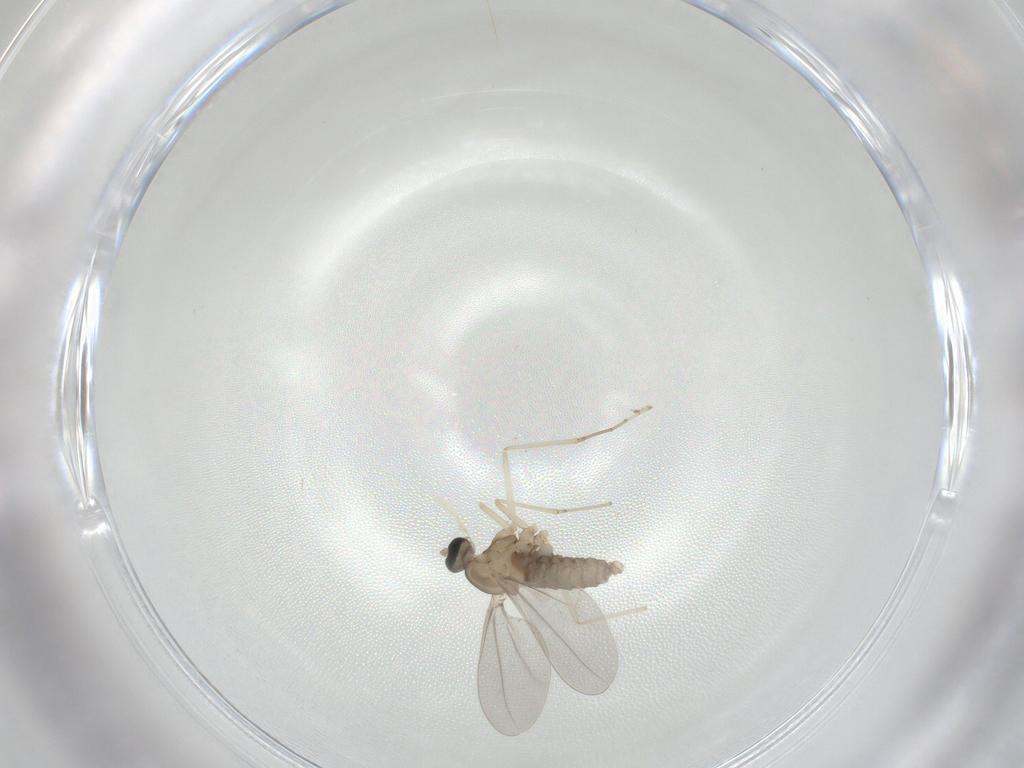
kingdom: Animalia
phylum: Arthropoda
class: Insecta
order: Diptera
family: Cecidomyiidae
